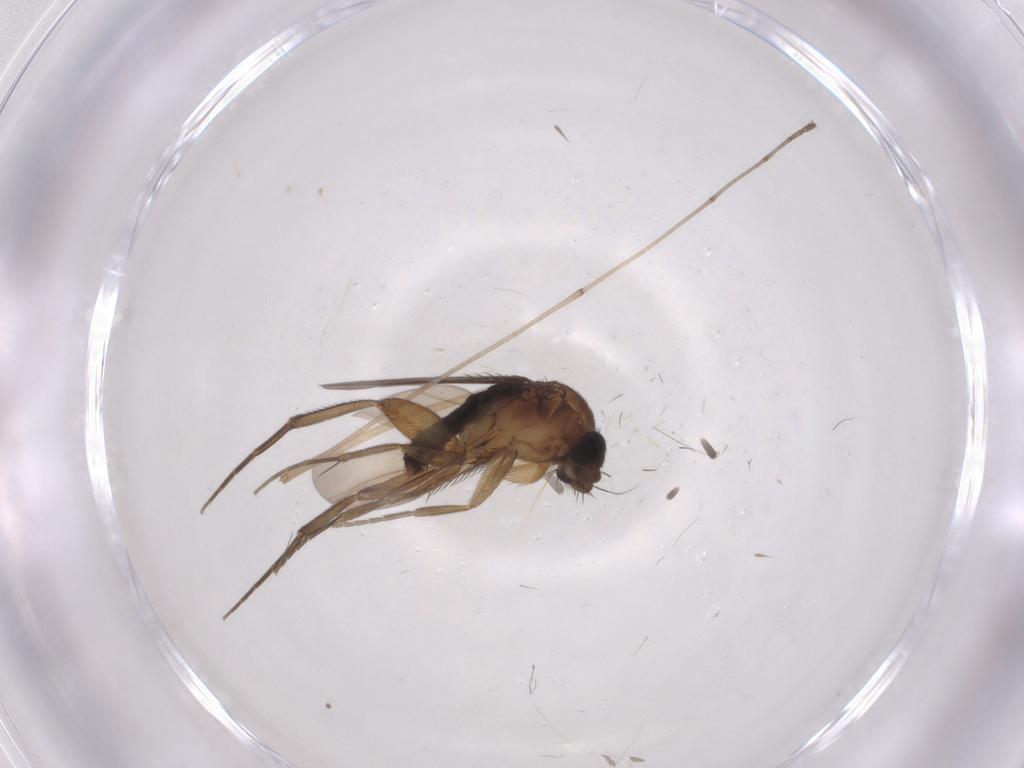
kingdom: Animalia
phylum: Arthropoda
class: Insecta
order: Diptera
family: Phoridae
